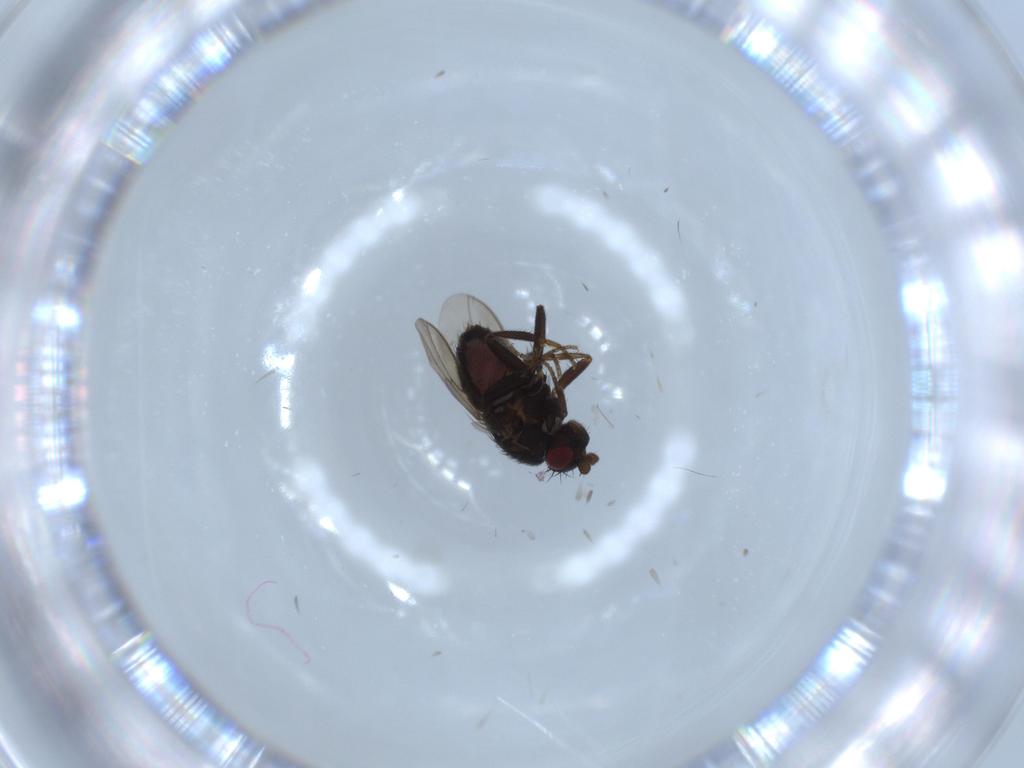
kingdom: Animalia
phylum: Arthropoda
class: Insecta
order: Diptera
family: Sphaeroceridae
